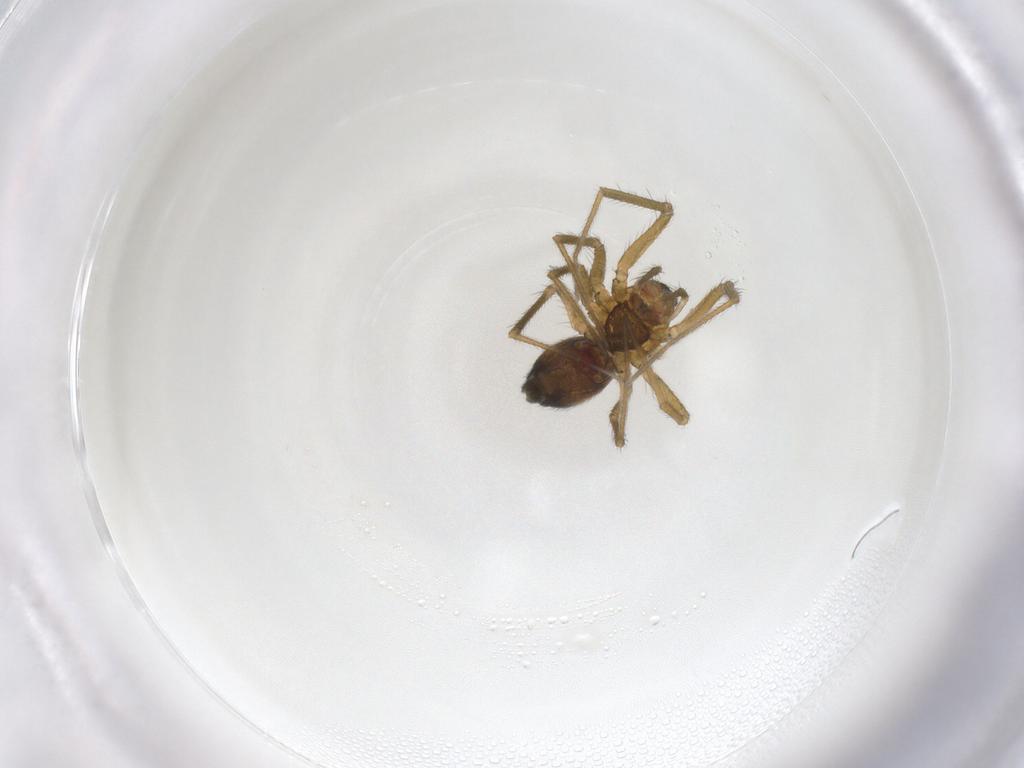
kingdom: Animalia
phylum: Arthropoda
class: Arachnida
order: Araneae
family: Linyphiidae
